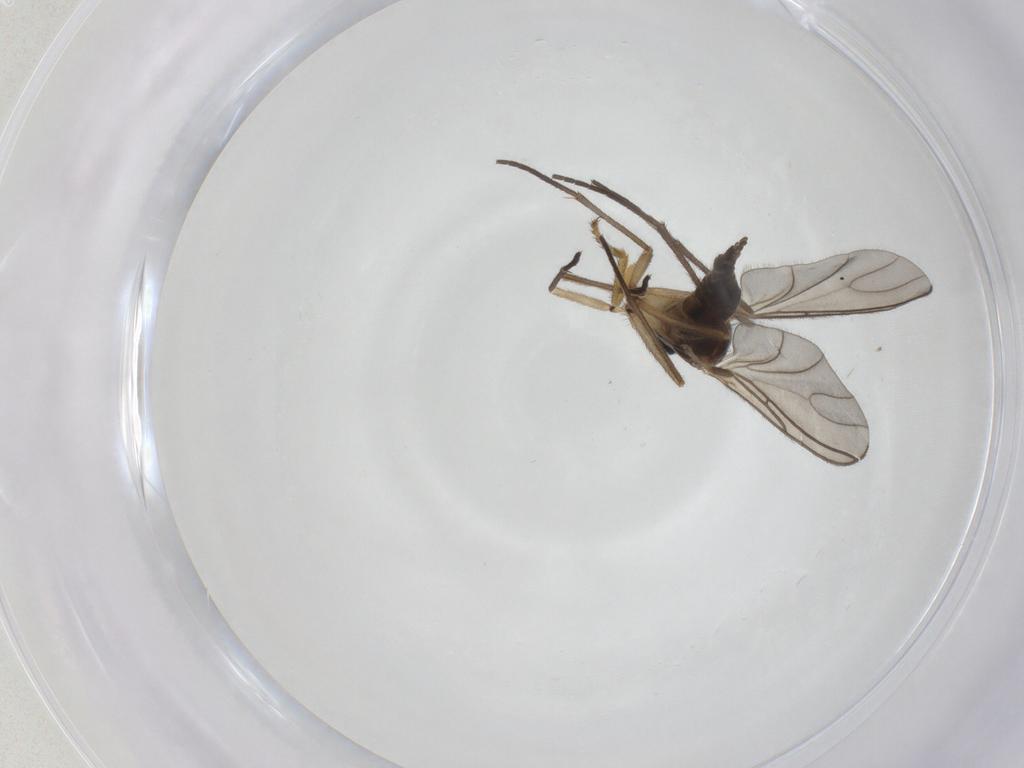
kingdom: Animalia
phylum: Arthropoda
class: Insecta
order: Diptera
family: Sciaridae
